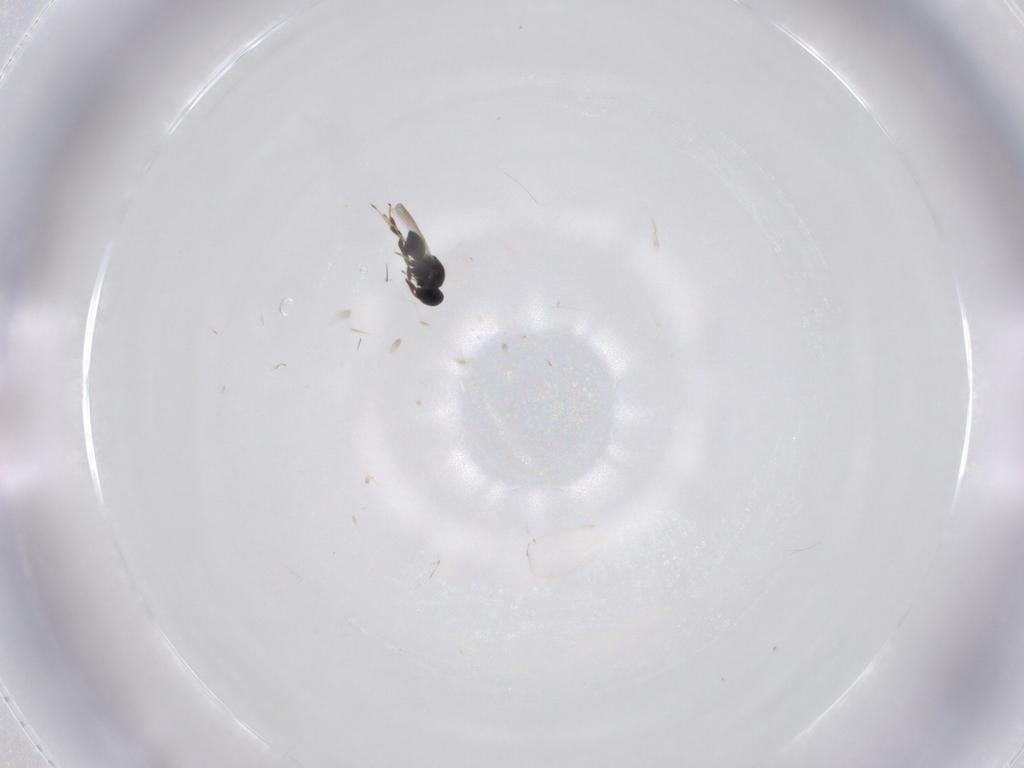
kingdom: Animalia
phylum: Arthropoda
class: Insecta
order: Hymenoptera
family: Platygastridae
